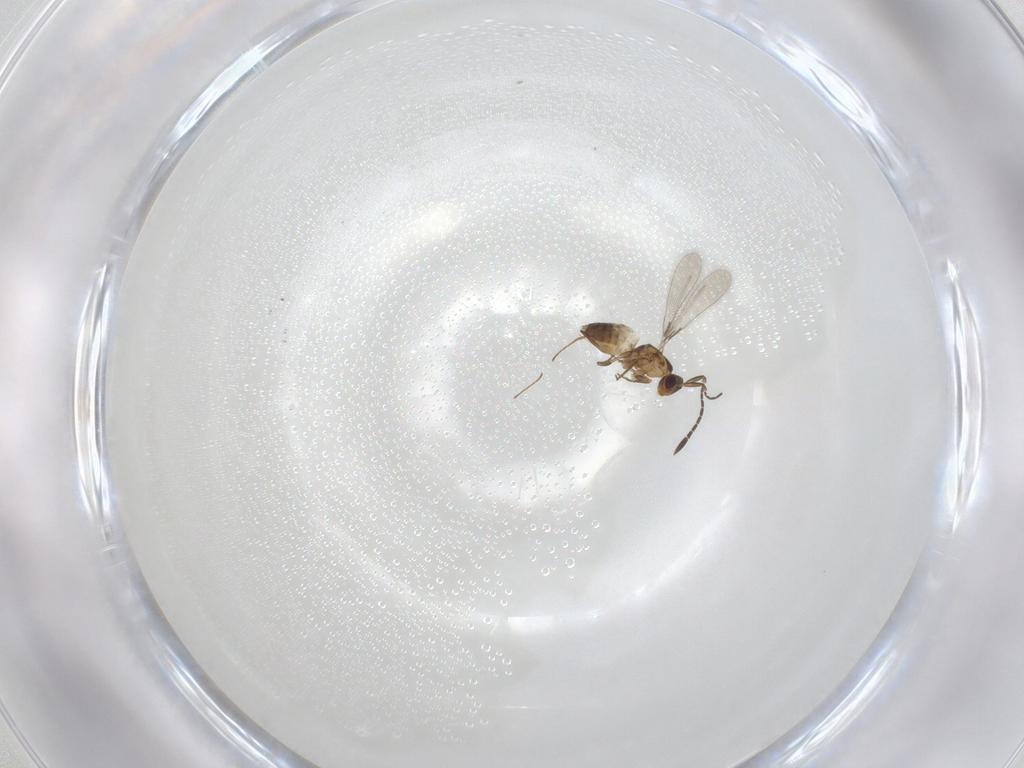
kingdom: Animalia
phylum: Arthropoda
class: Insecta
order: Hymenoptera
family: Mymaridae
